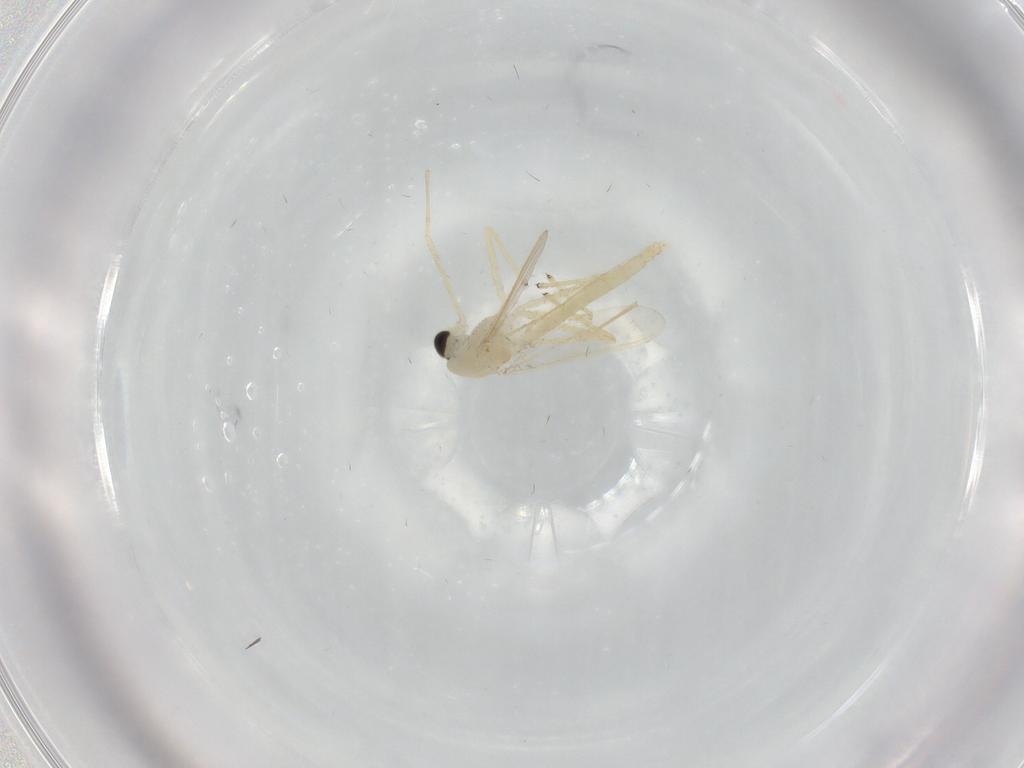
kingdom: Animalia
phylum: Arthropoda
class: Insecta
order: Diptera
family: Chironomidae
